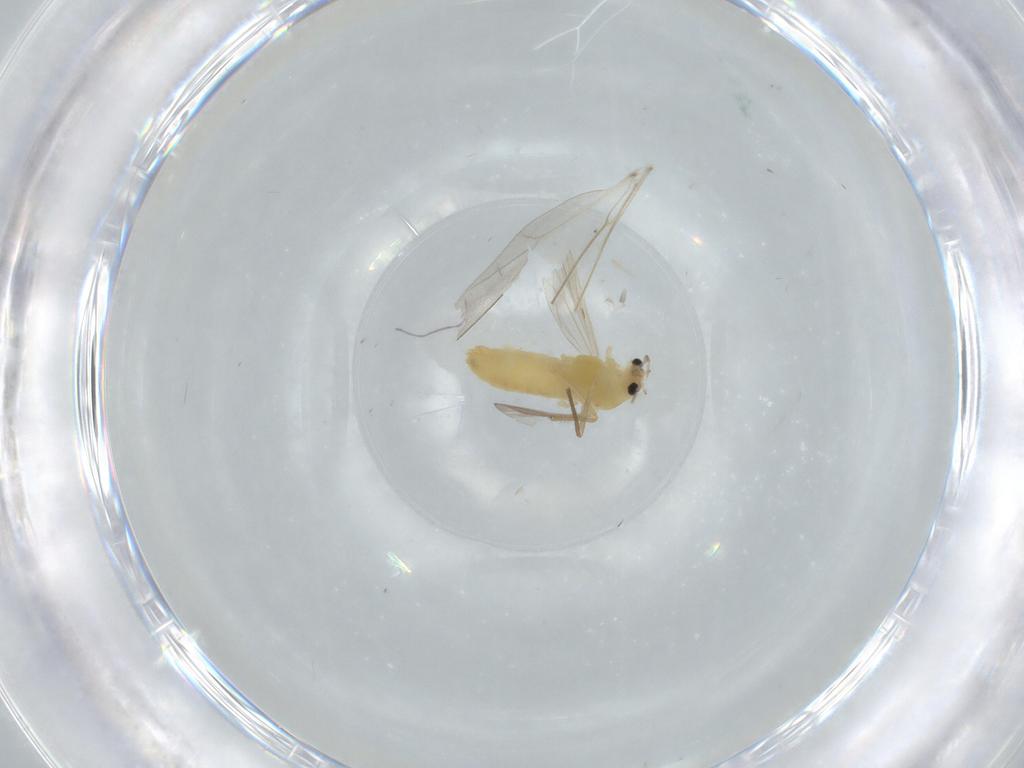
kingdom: Animalia
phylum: Arthropoda
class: Insecta
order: Diptera
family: Chironomidae
